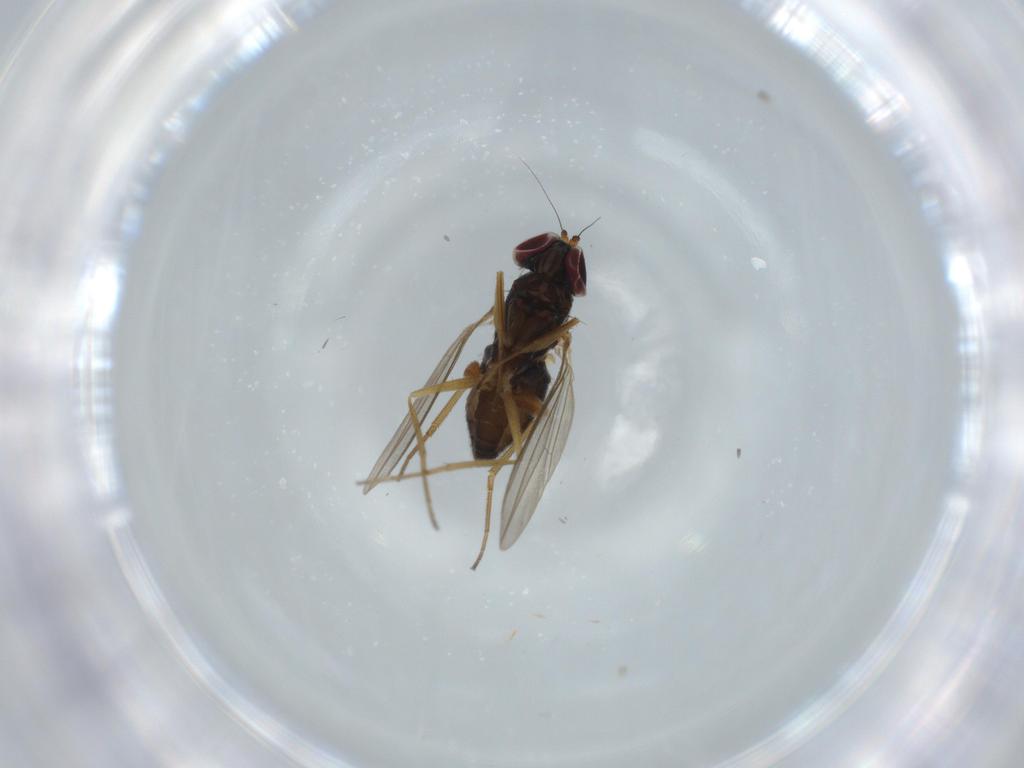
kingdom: Animalia
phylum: Arthropoda
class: Insecta
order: Diptera
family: Dolichopodidae
